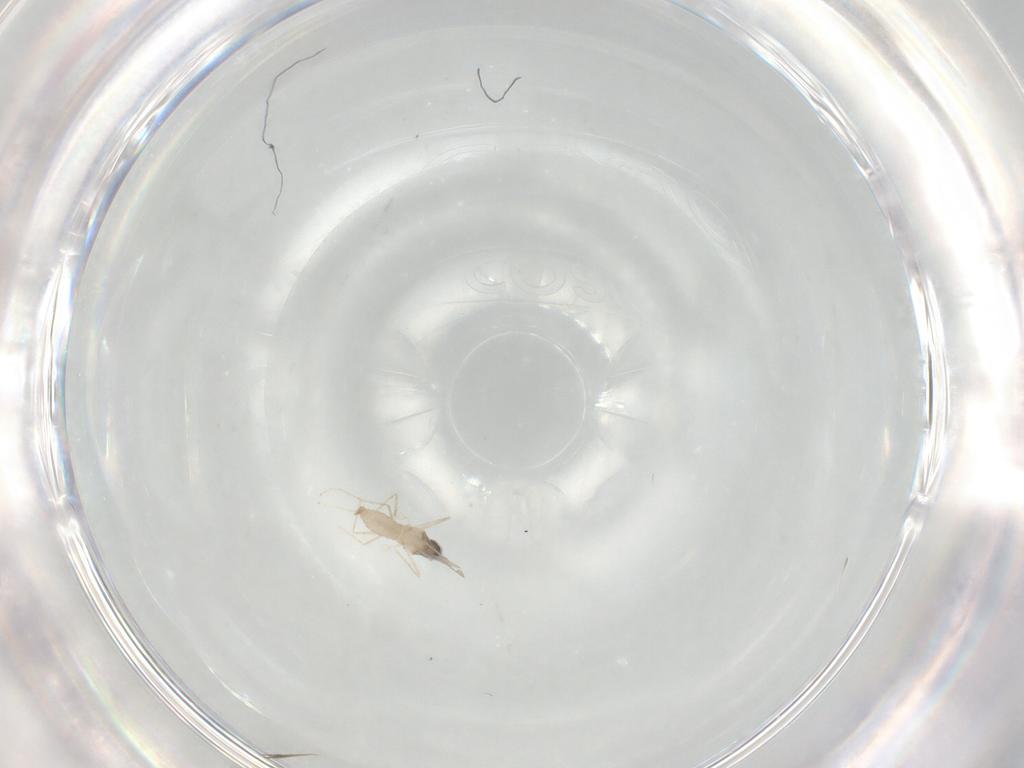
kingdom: Animalia
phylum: Arthropoda
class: Insecta
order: Diptera
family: Cecidomyiidae
